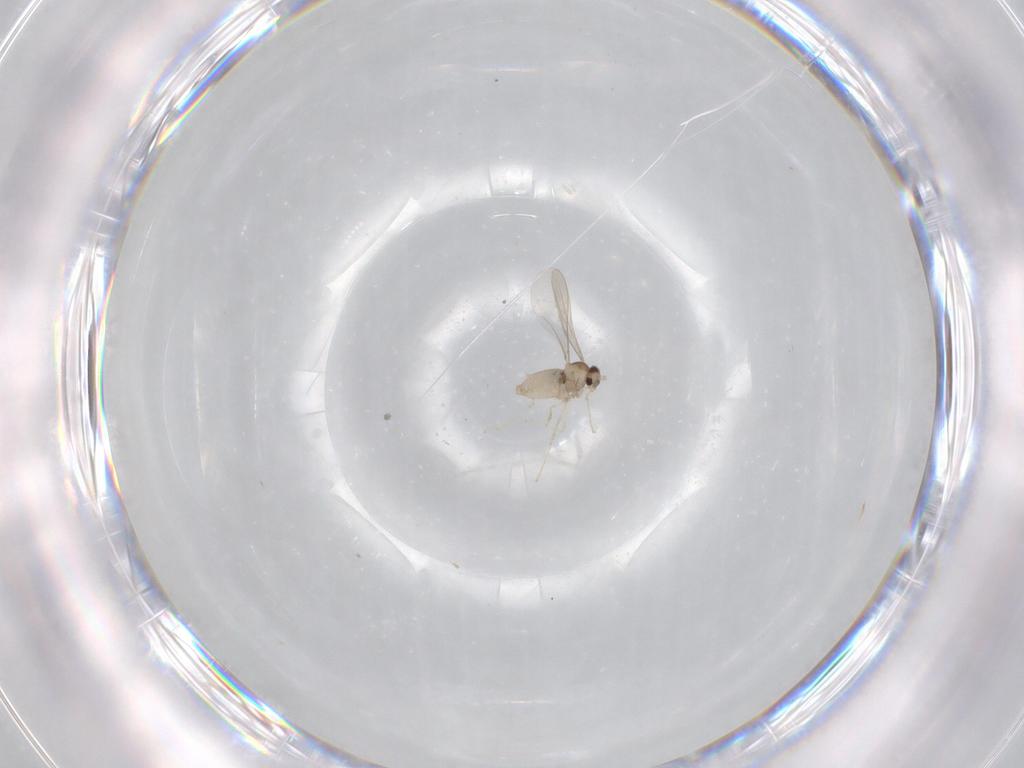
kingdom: Animalia
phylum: Arthropoda
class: Insecta
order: Diptera
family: Cecidomyiidae
